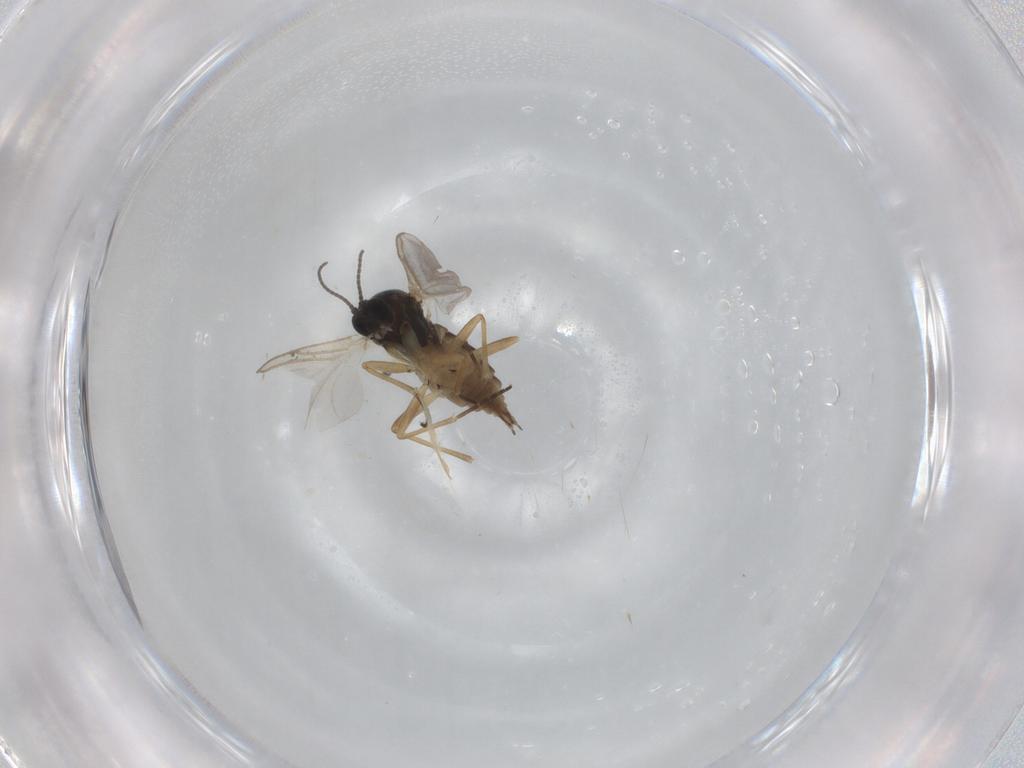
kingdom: Animalia
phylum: Arthropoda
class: Insecta
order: Diptera
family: Sciaridae
